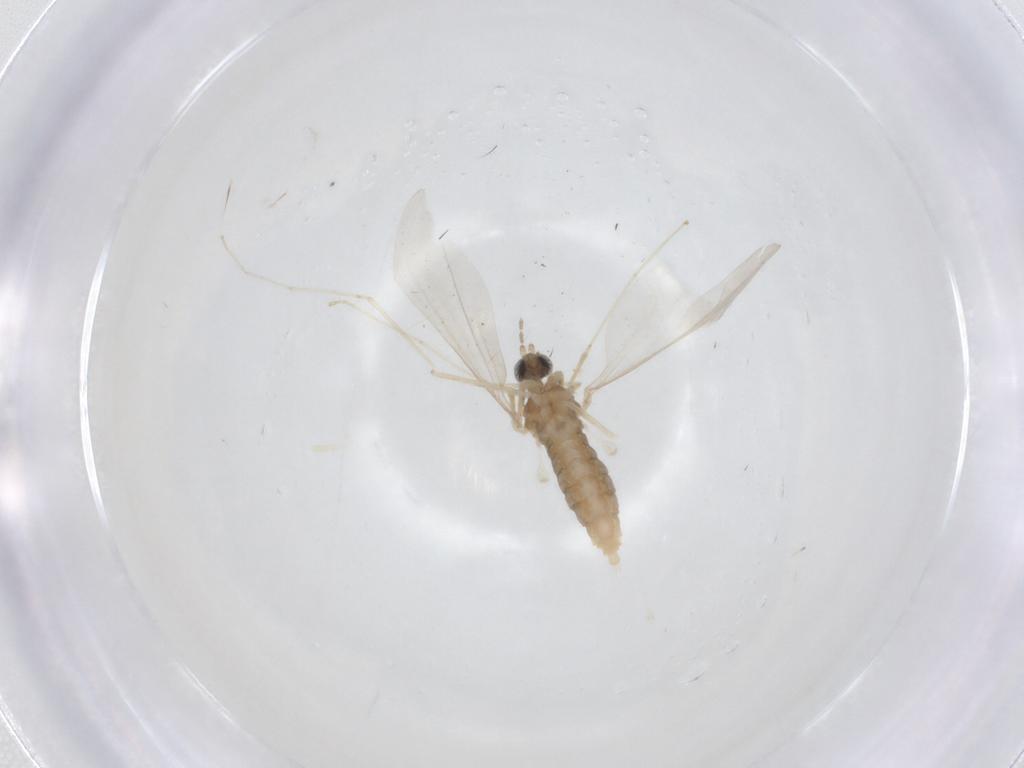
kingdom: Animalia
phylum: Arthropoda
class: Insecta
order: Diptera
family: Cecidomyiidae
